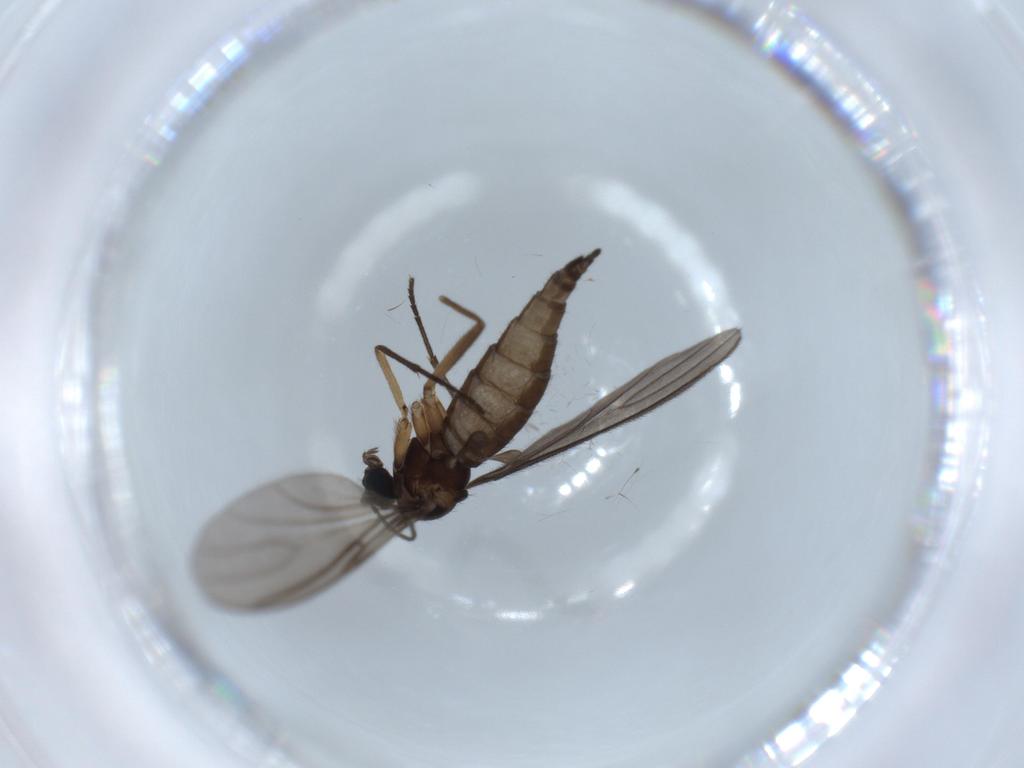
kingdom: Animalia
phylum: Arthropoda
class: Insecta
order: Diptera
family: Sciaridae
